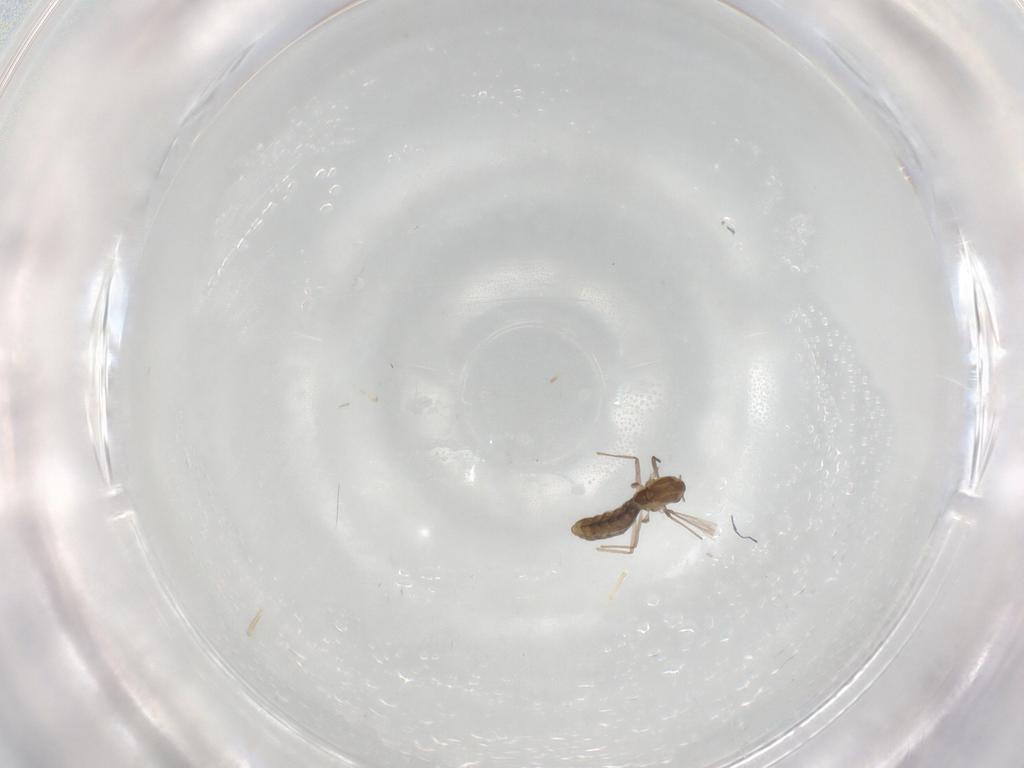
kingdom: Animalia
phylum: Arthropoda
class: Insecta
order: Diptera
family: Chironomidae
